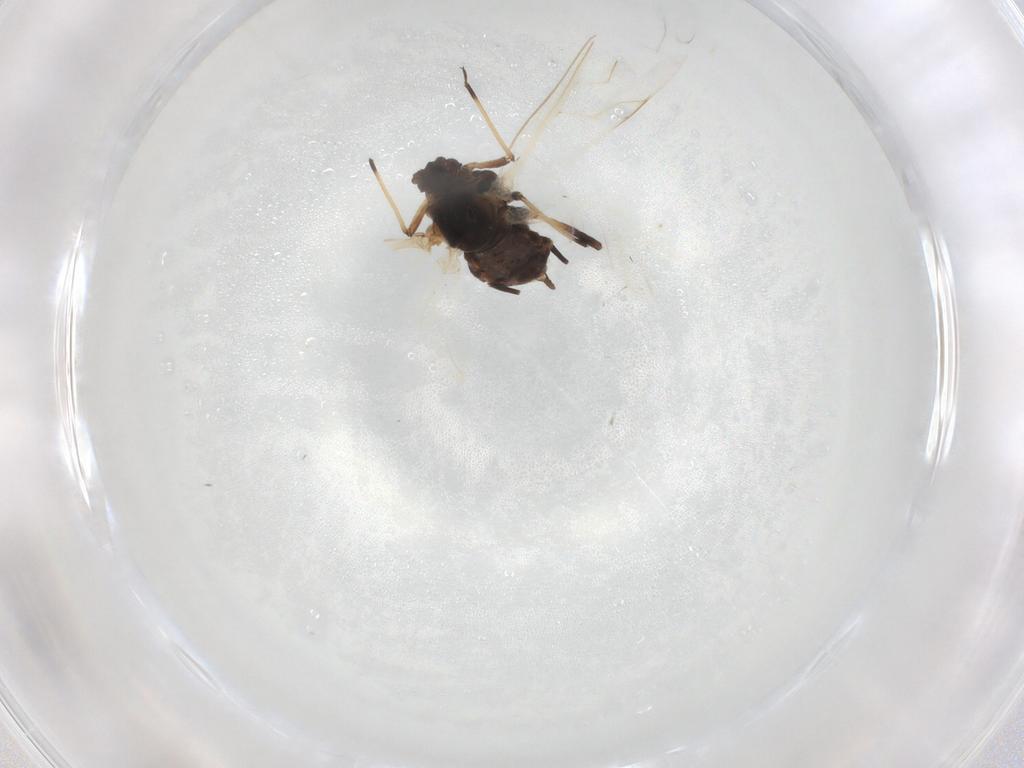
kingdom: Animalia
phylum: Arthropoda
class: Insecta
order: Hemiptera
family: Aphididae
